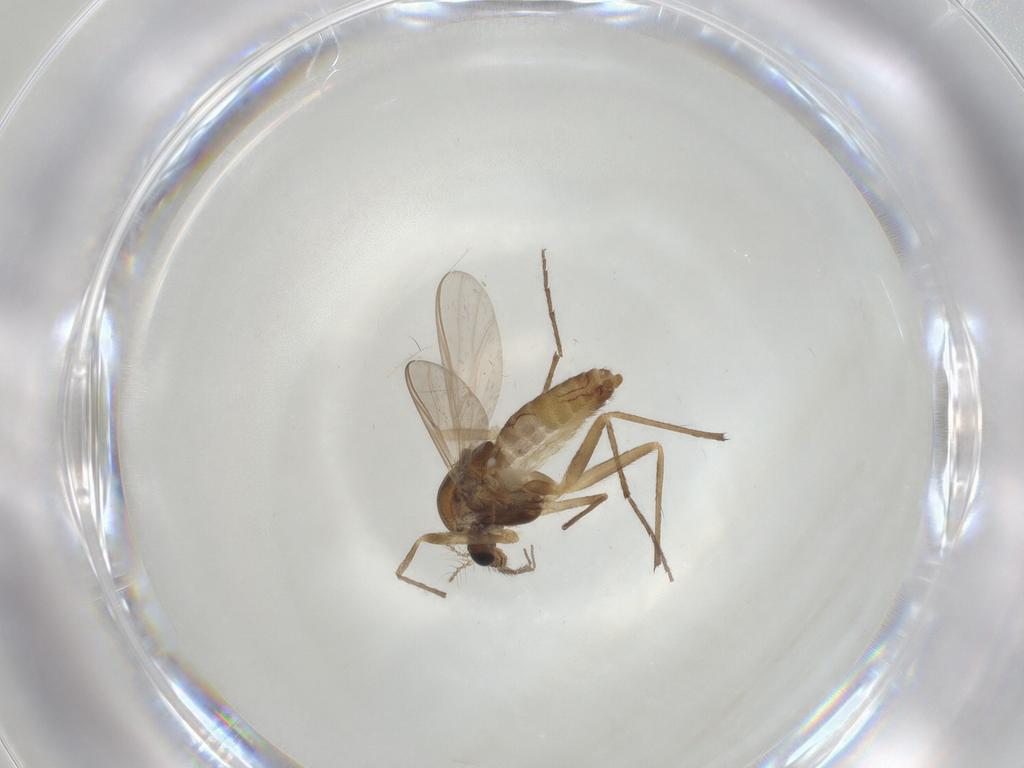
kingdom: Animalia
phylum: Arthropoda
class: Insecta
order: Diptera
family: Chironomidae
